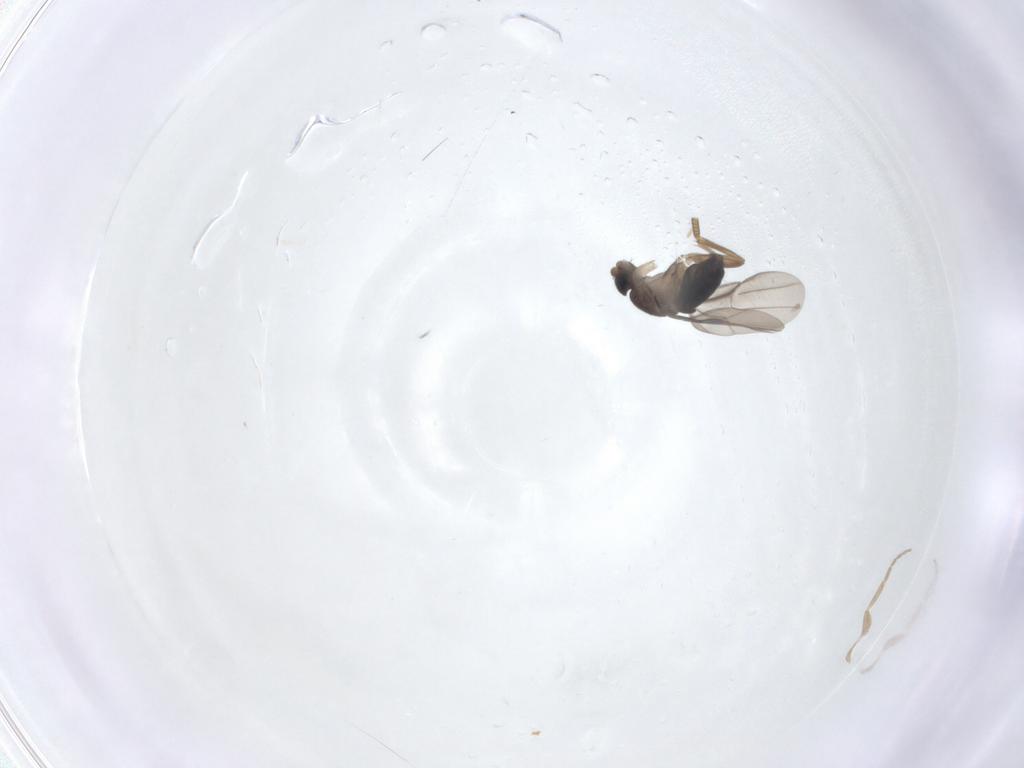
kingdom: Animalia
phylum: Arthropoda
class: Insecta
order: Diptera
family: Phoridae
